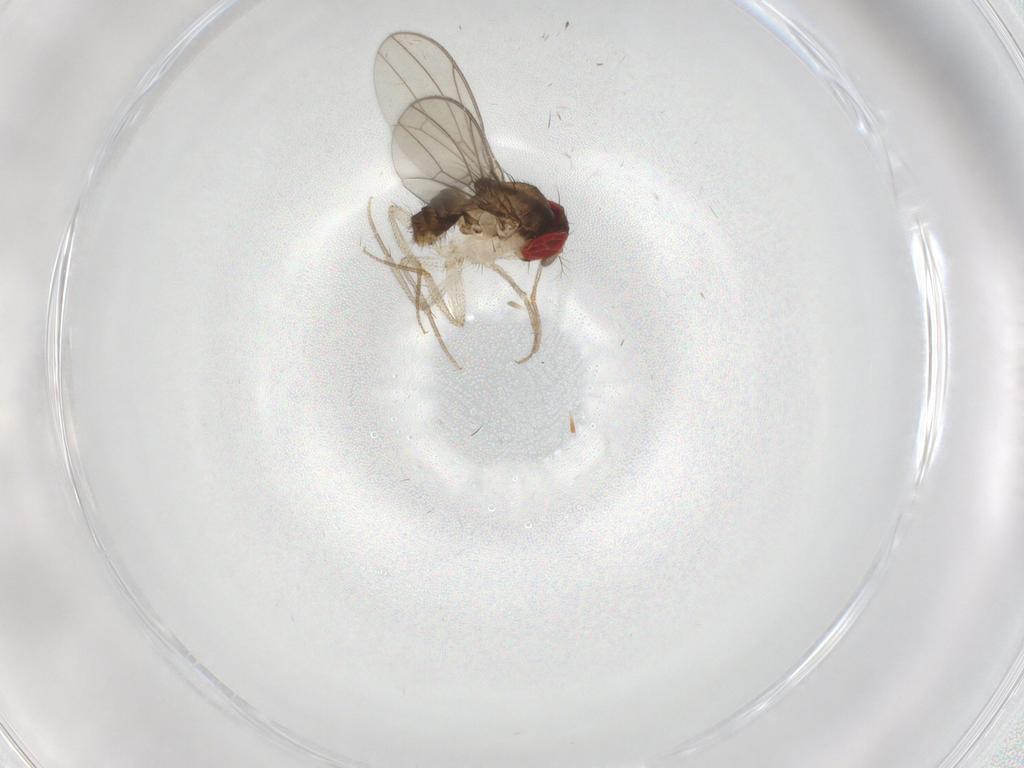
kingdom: Animalia
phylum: Arthropoda
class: Insecta
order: Diptera
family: Drosophilidae
